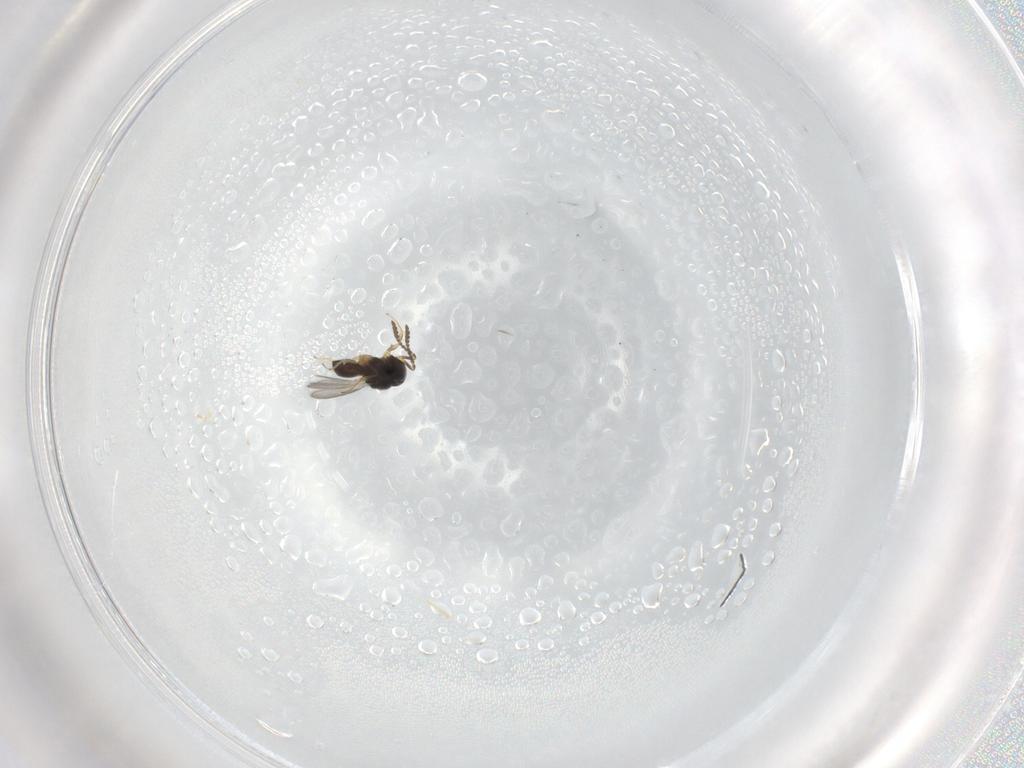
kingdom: Animalia
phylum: Arthropoda
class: Insecta
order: Hymenoptera
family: Scelionidae
